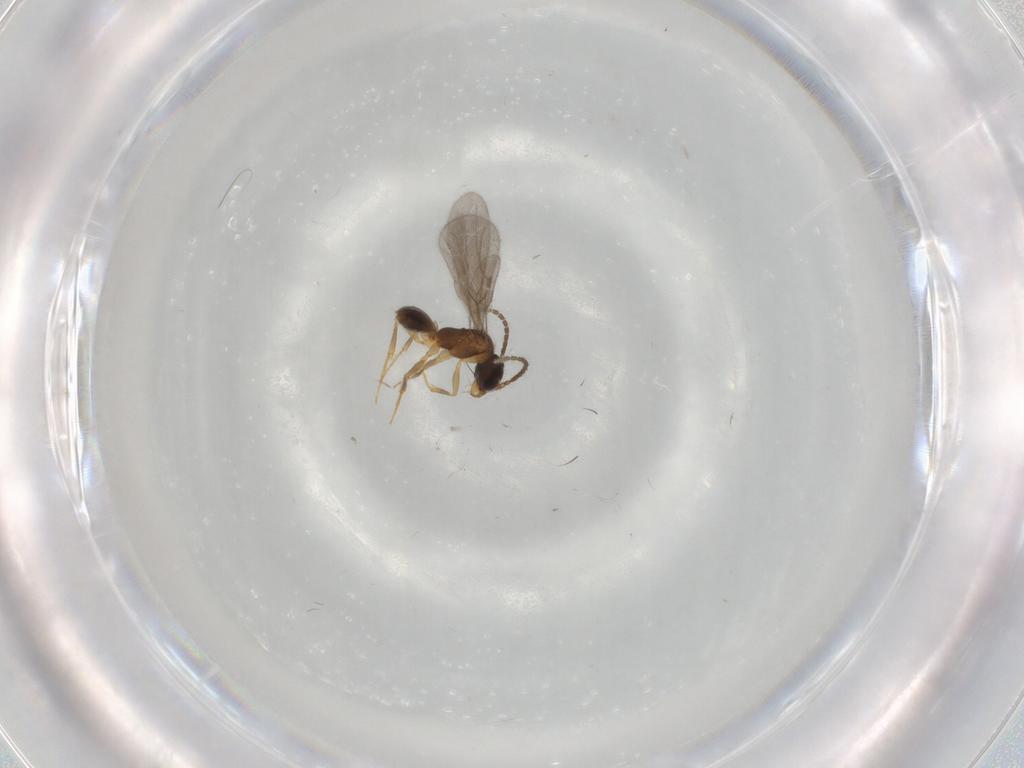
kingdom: Animalia
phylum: Arthropoda
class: Insecta
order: Hymenoptera
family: Bethylidae
